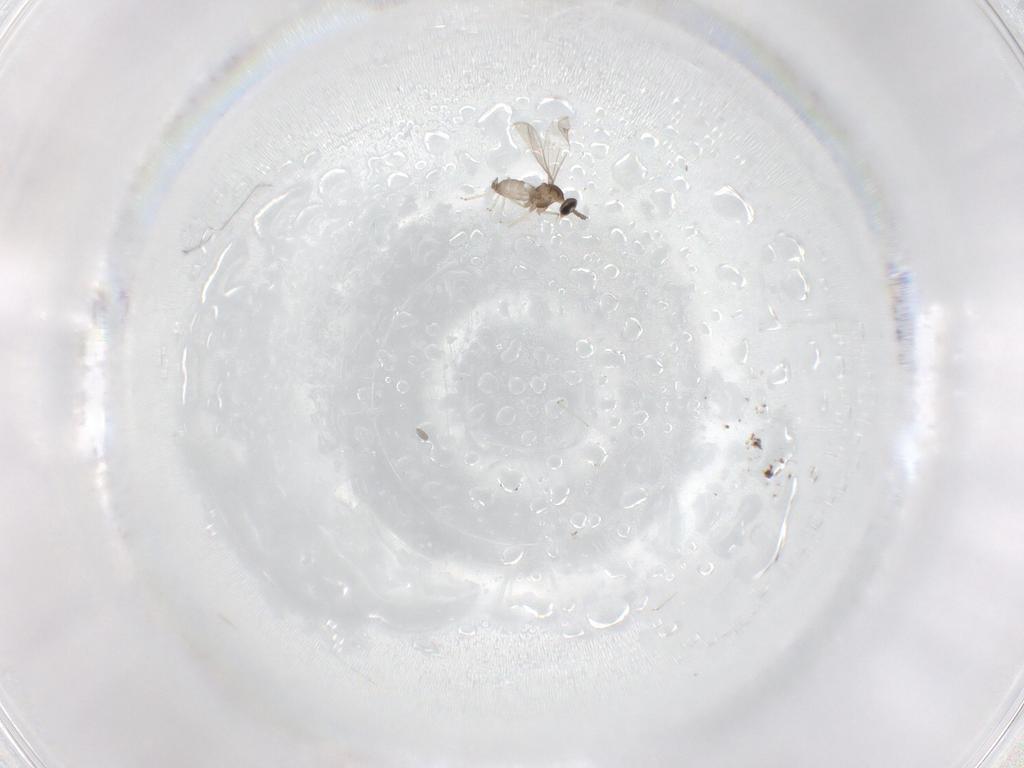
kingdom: Animalia
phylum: Arthropoda
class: Insecta
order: Diptera
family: Cecidomyiidae
